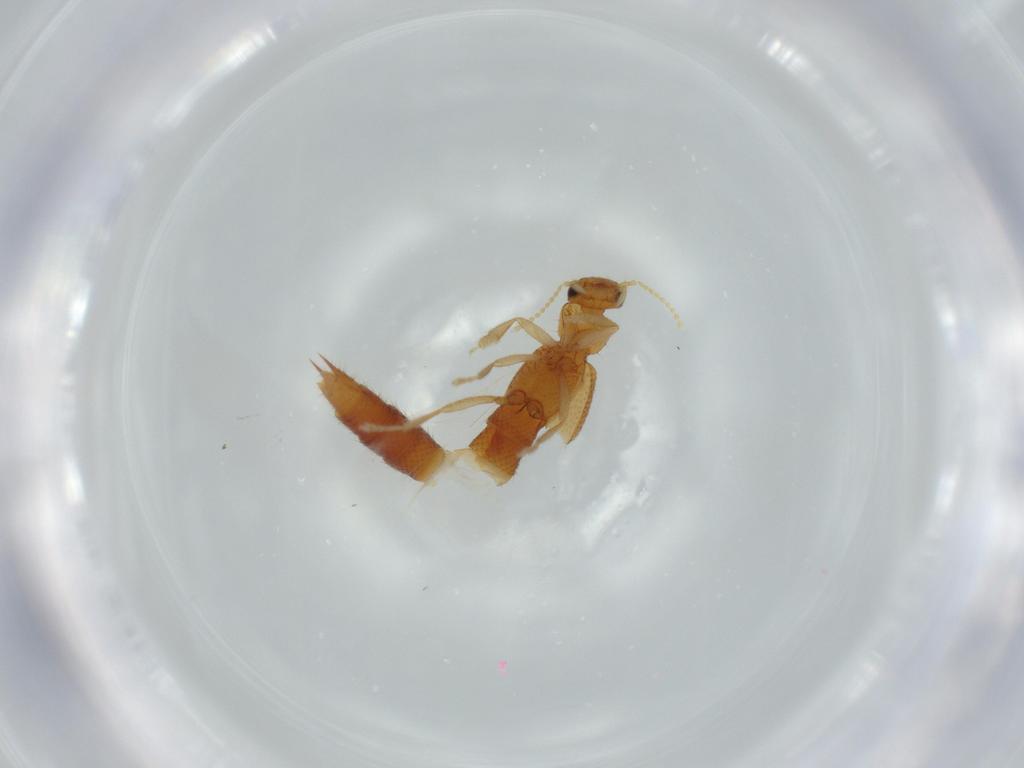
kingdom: Animalia
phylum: Arthropoda
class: Insecta
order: Coleoptera
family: Staphylinidae
